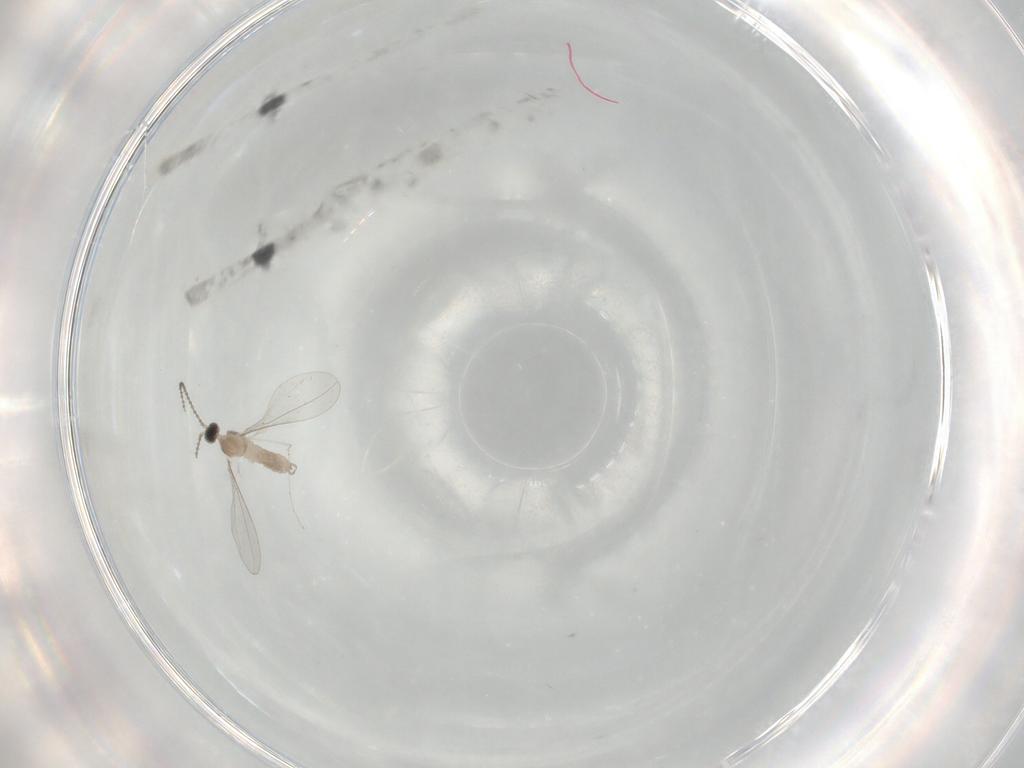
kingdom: Animalia
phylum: Arthropoda
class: Insecta
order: Diptera
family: Cecidomyiidae
